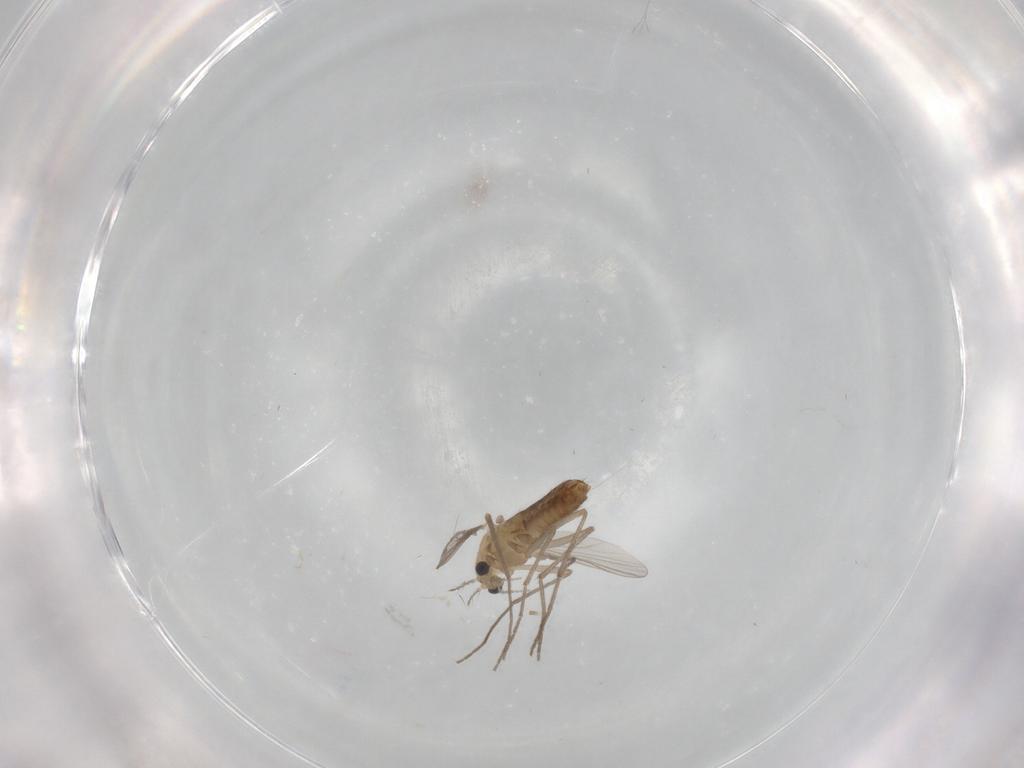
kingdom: Animalia
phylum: Arthropoda
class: Insecta
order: Diptera
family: Chironomidae
